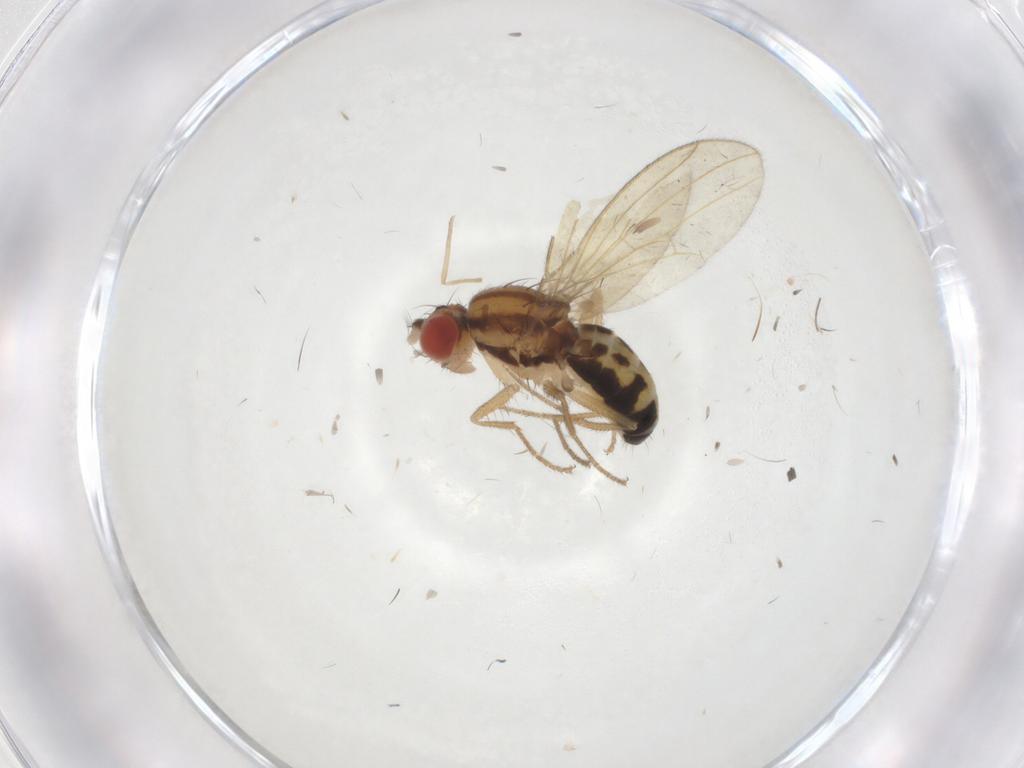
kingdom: Animalia
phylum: Arthropoda
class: Insecta
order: Diptera
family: Drosophilidae
